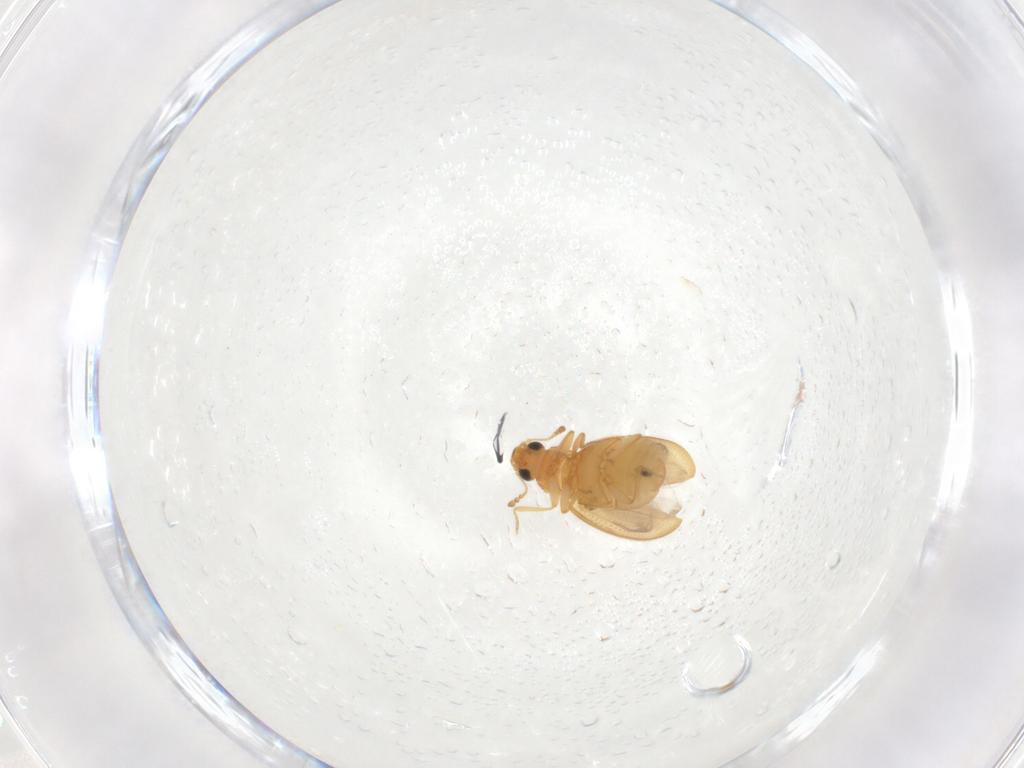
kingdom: Animalia
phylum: Arthropoda
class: Insecta
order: Coleoptera
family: Latridiidae
